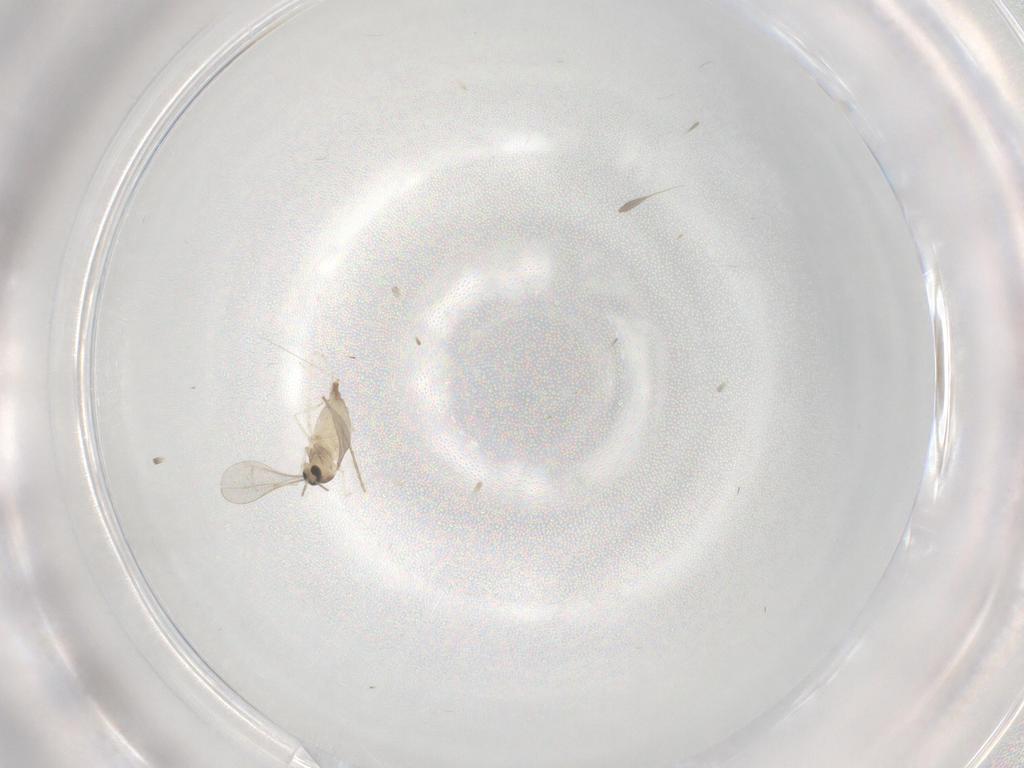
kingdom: Animalia
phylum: Arthropoda
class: Insecta
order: Diptera
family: Cecidomyiidae
